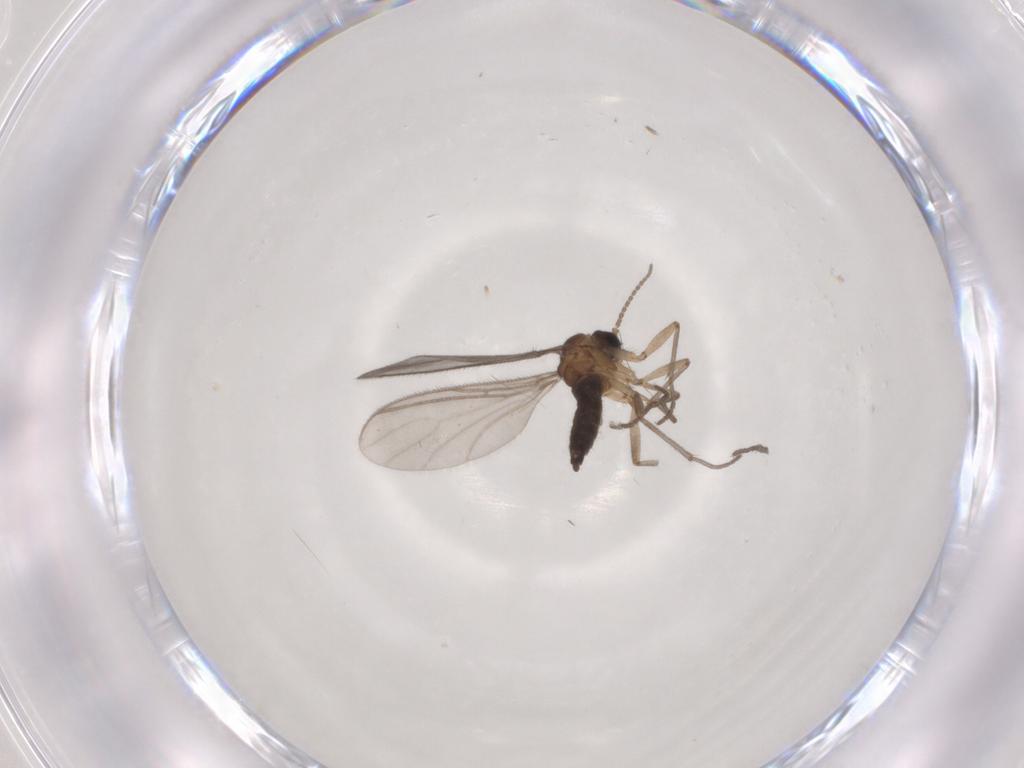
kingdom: Animalia
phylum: Arthropoda
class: Insecta
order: Diptera
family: Sciaridae
